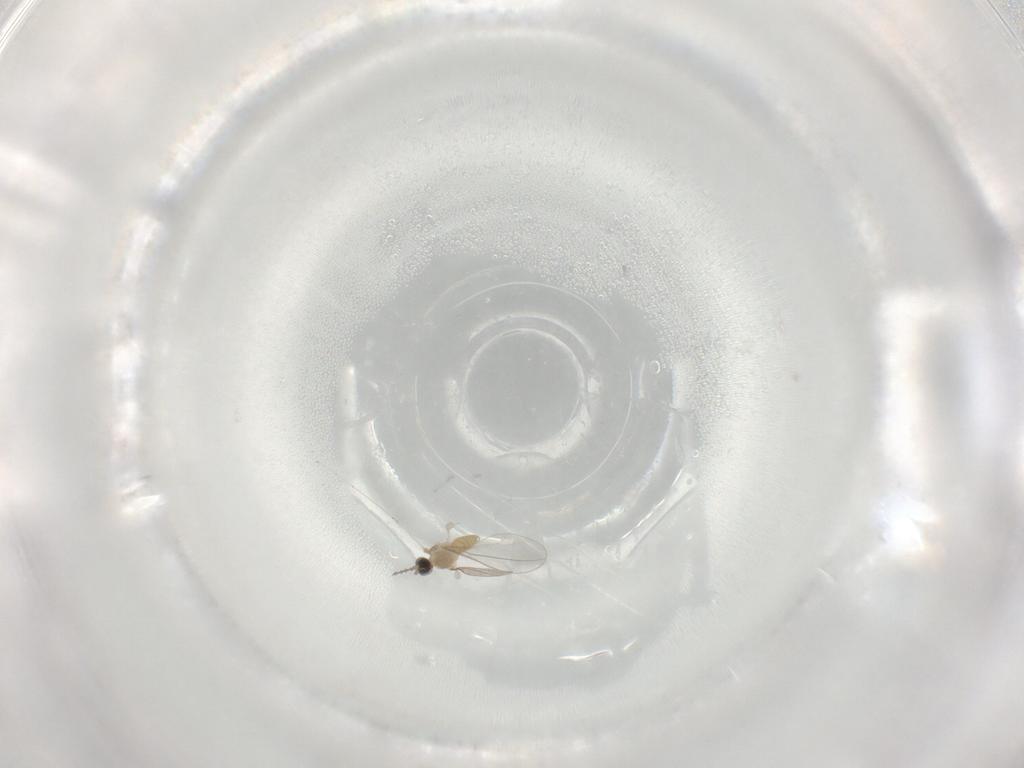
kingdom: Animalia
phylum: Arthropoda
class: Insecta
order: Diptera
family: Cecidomyiidae
